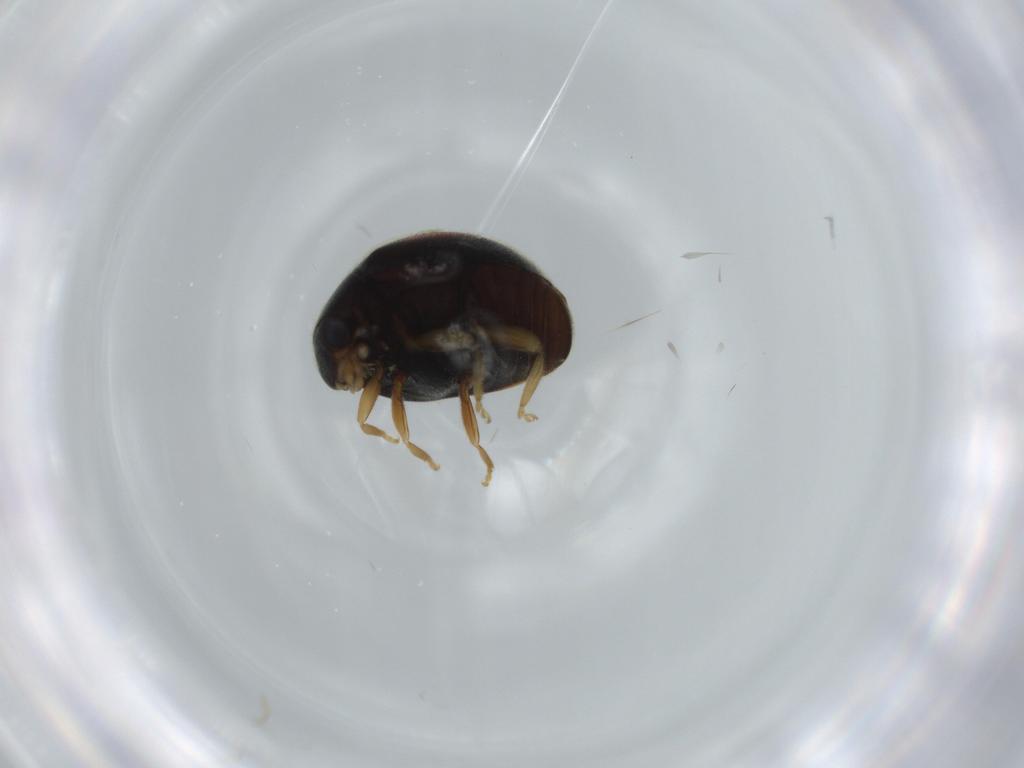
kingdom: Animalia
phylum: Arthropoda
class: Insecta
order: Coleoptera
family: Coccinellidae
